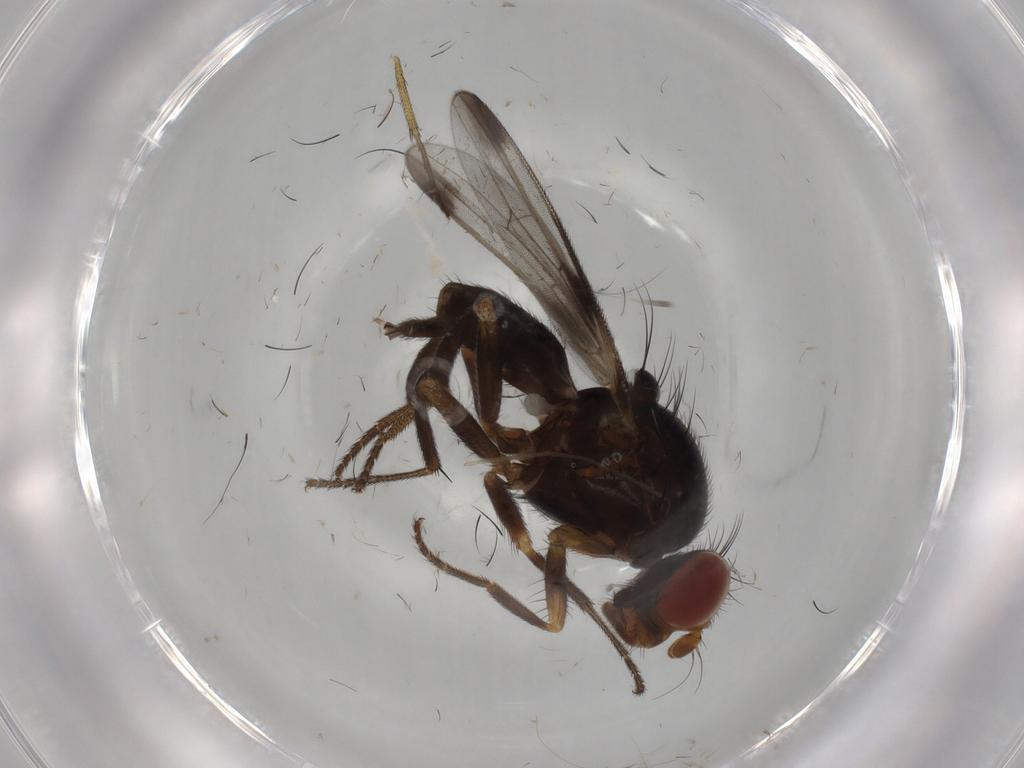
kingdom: Animalia
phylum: Arthropoda
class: Insecta
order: Diptera
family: Ulidiidae
